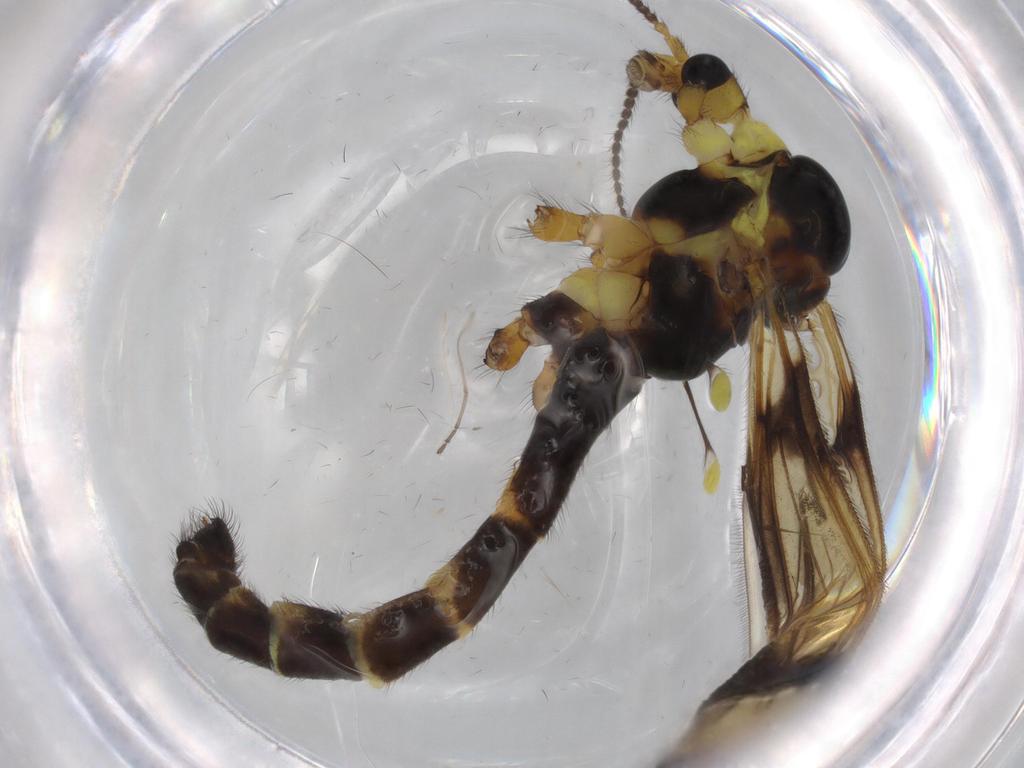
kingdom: Animalia
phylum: Arthropoda
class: Insecta
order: Diptera
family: Limoniidae
